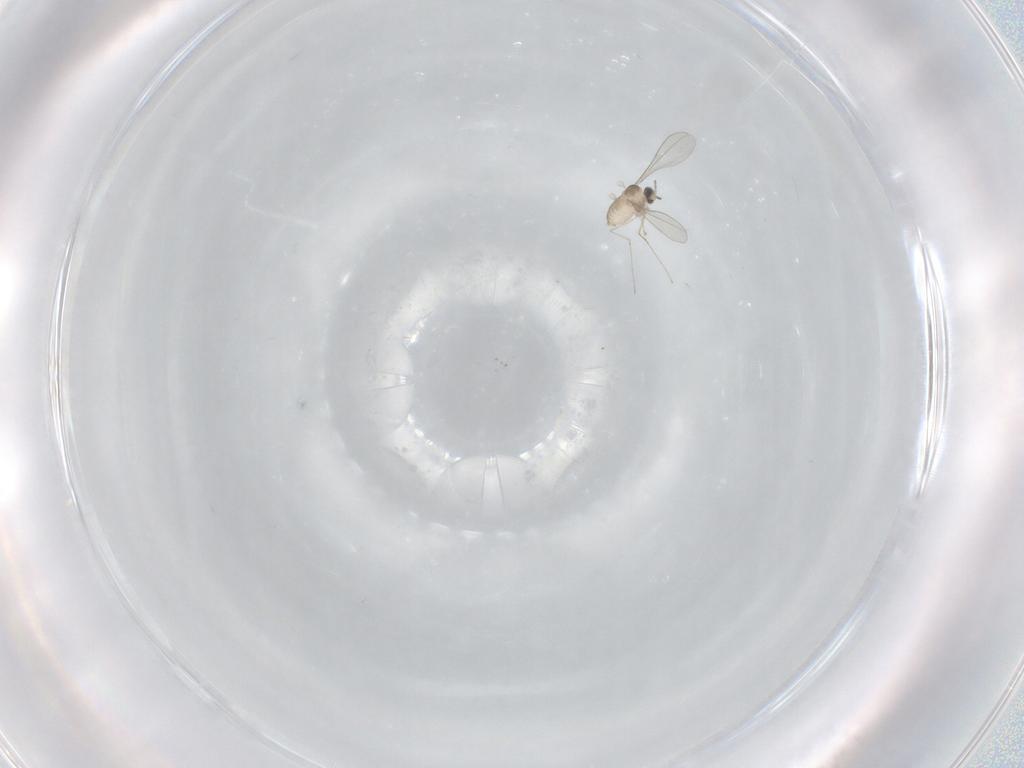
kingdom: Animalia
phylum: Arthropoda
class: Insecta
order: Diptera
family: Cecidomyiidae
